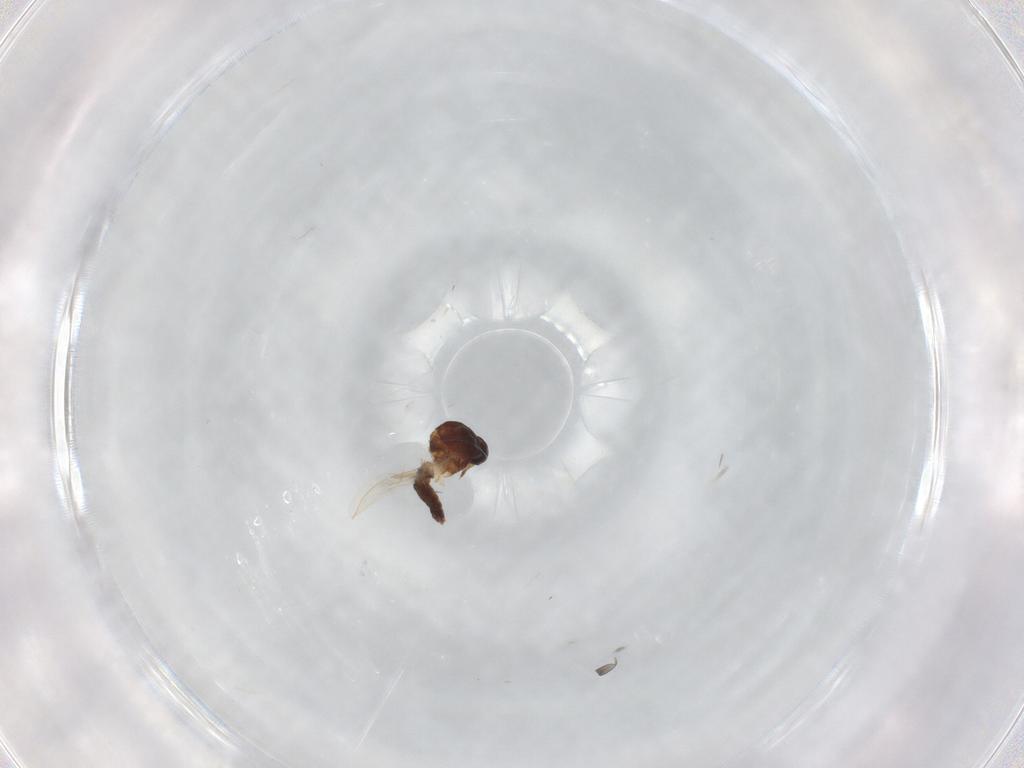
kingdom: Animalia
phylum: Arthropoda
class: Insecta
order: Diptera
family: Ceratopogonidae
